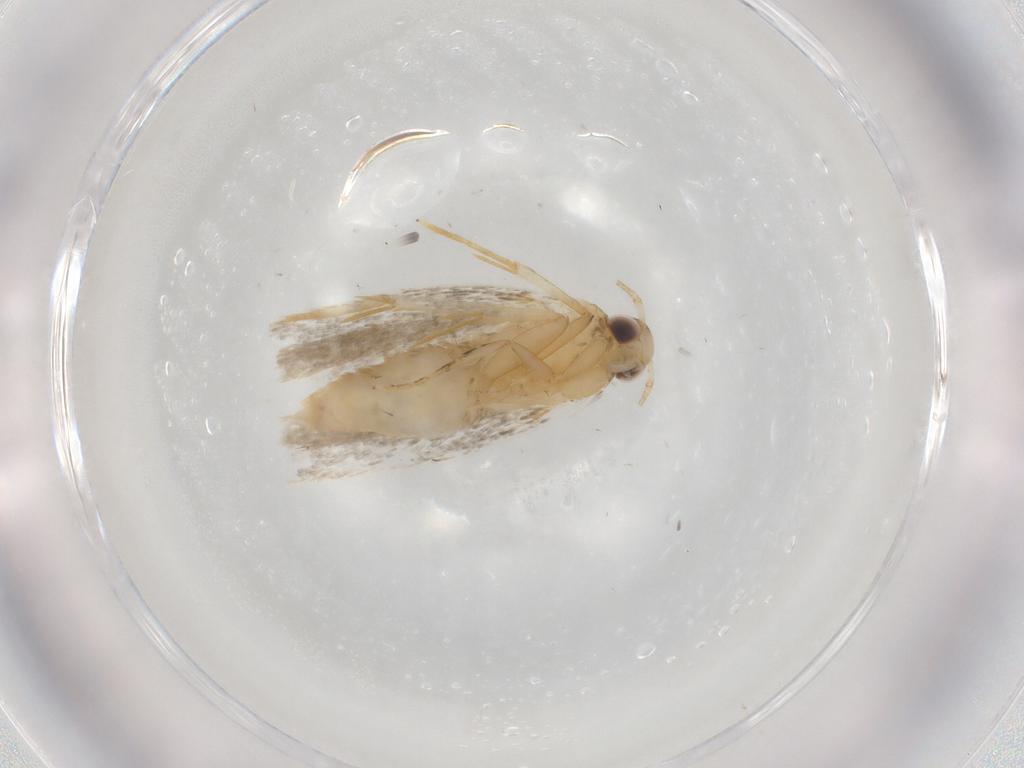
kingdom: Animalia
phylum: Arthropoda
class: Insecta
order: Lepidoptera
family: Autostichidae
